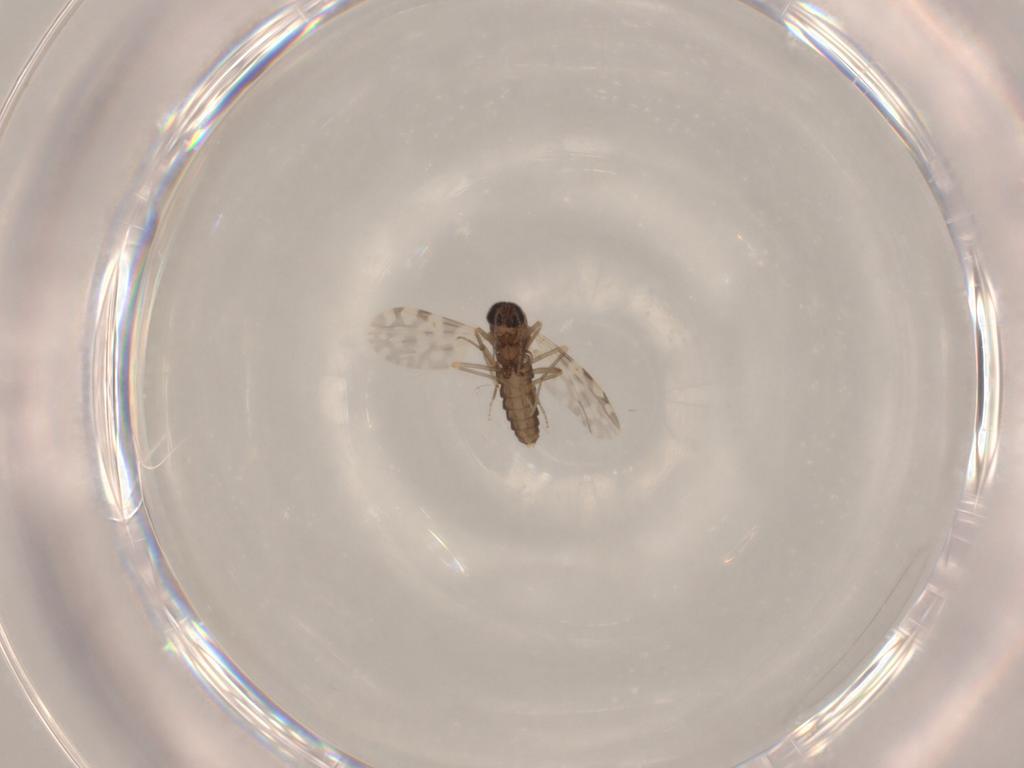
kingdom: Animalia
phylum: Arthropoda
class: Insecta
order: Diptera
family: Ceratopogonidae
